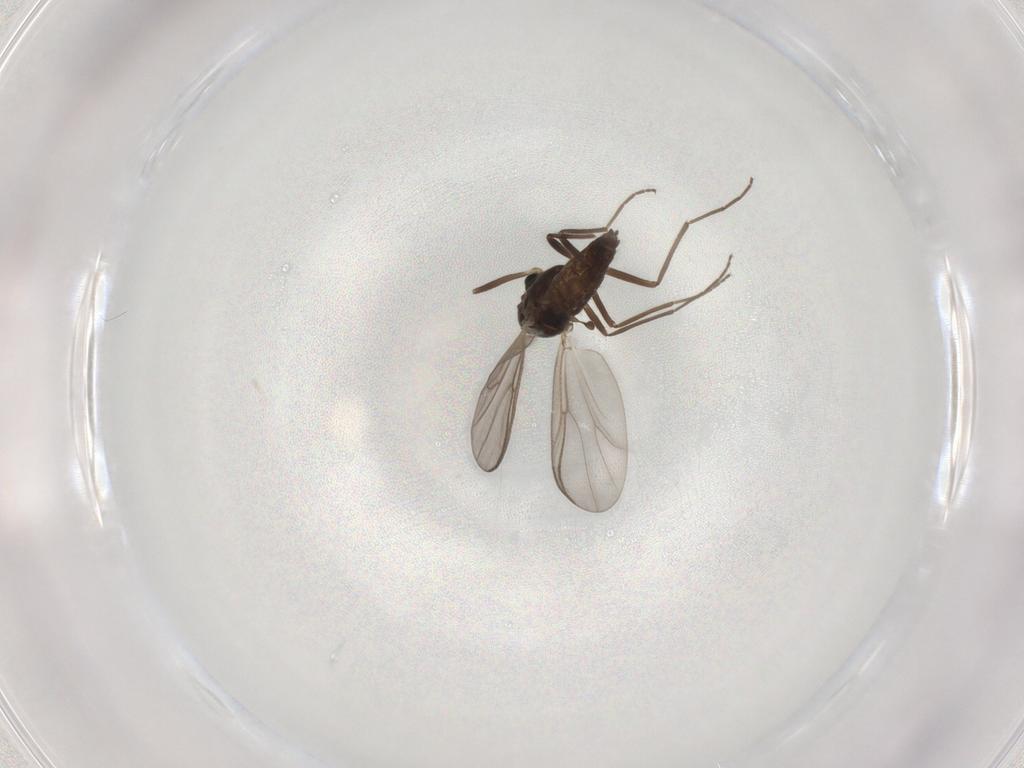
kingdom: Animalia
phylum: Arthropoda
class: Insecta
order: Diptera
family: Chironomidae
